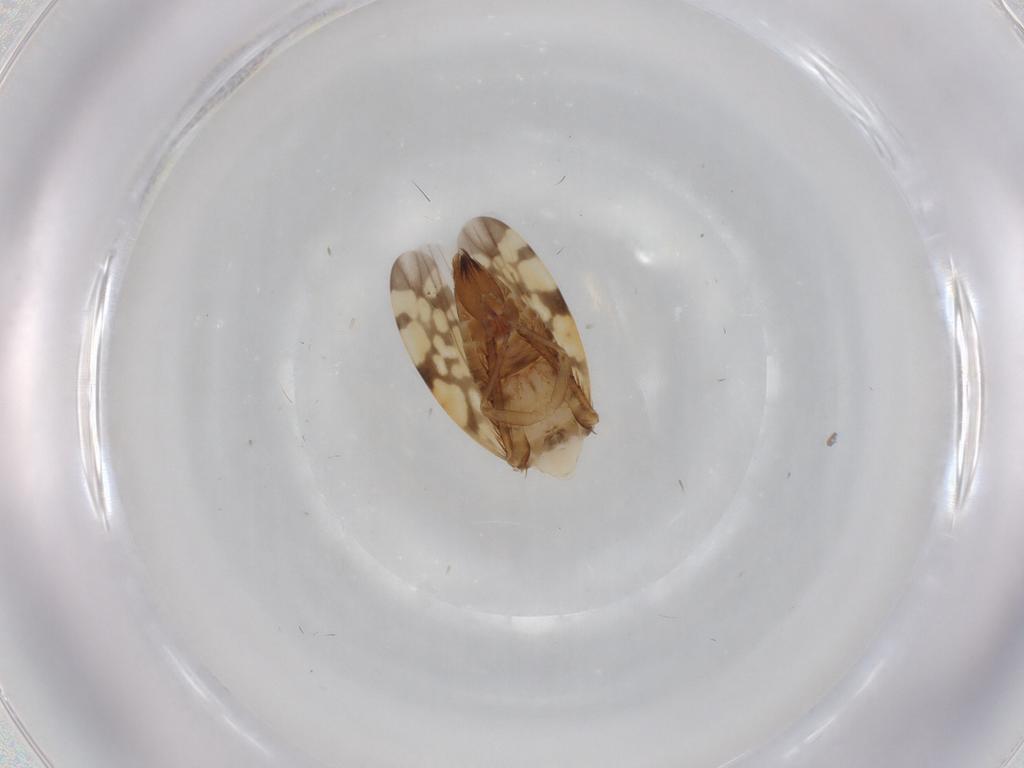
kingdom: Animalia
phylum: Arthropoda
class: Insecta
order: Hemiptera
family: Cicadellidae
